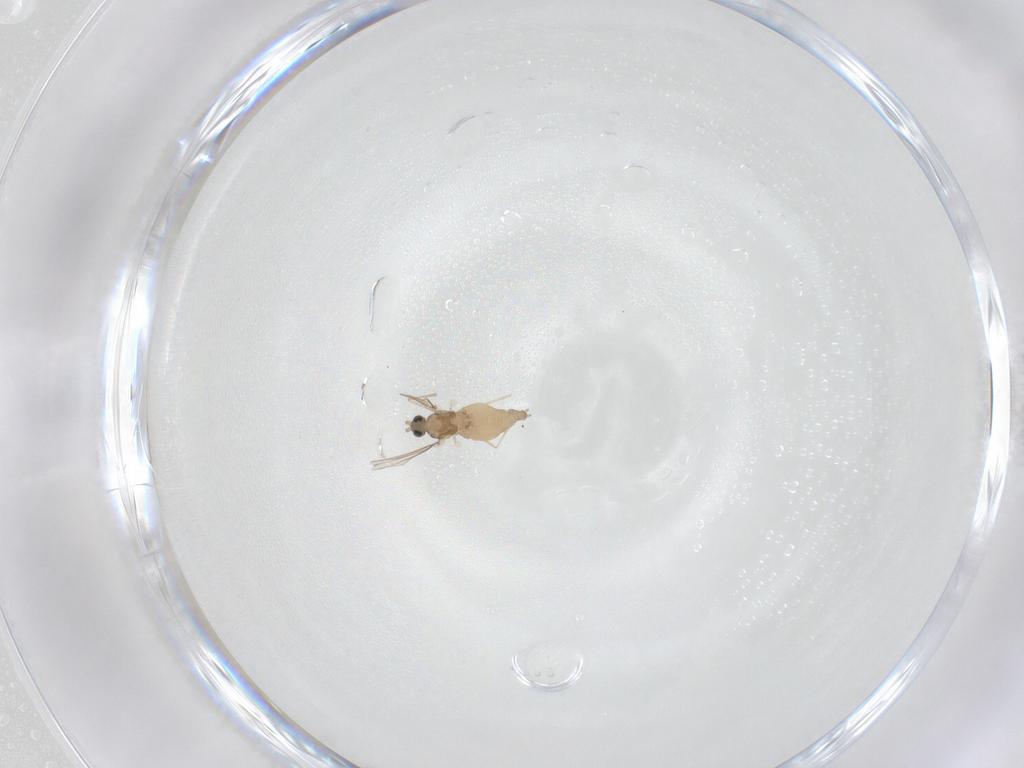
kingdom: Animalia
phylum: Arthropoda
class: Insecta
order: Diptera
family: Cecidomyiidae
